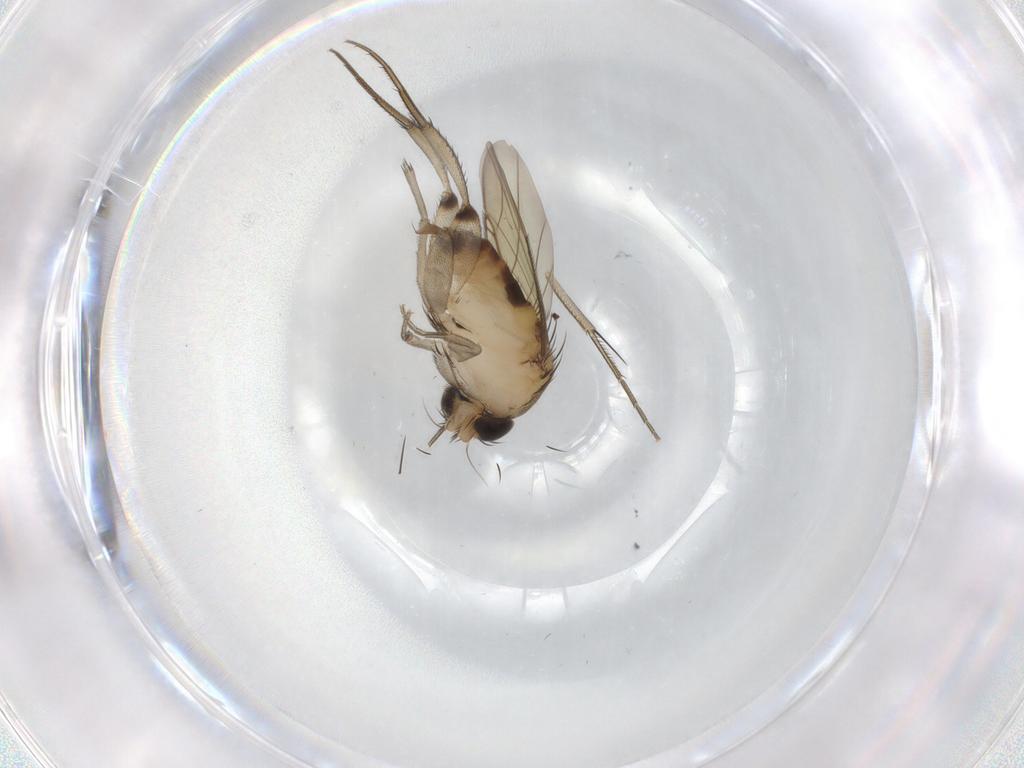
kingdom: Animalia
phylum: Arthropoda
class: Insecta
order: Diptera
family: Phoridae
